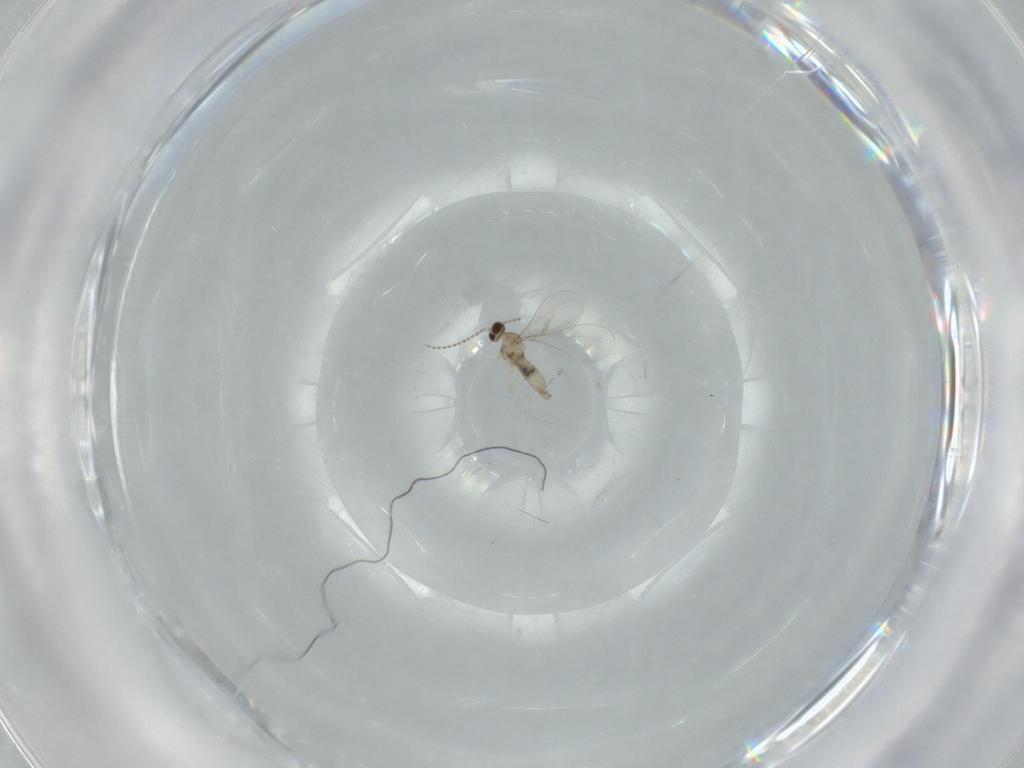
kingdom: Animalia
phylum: Arthropoda
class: Insecta
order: Diptera
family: Cecidomyiidae
